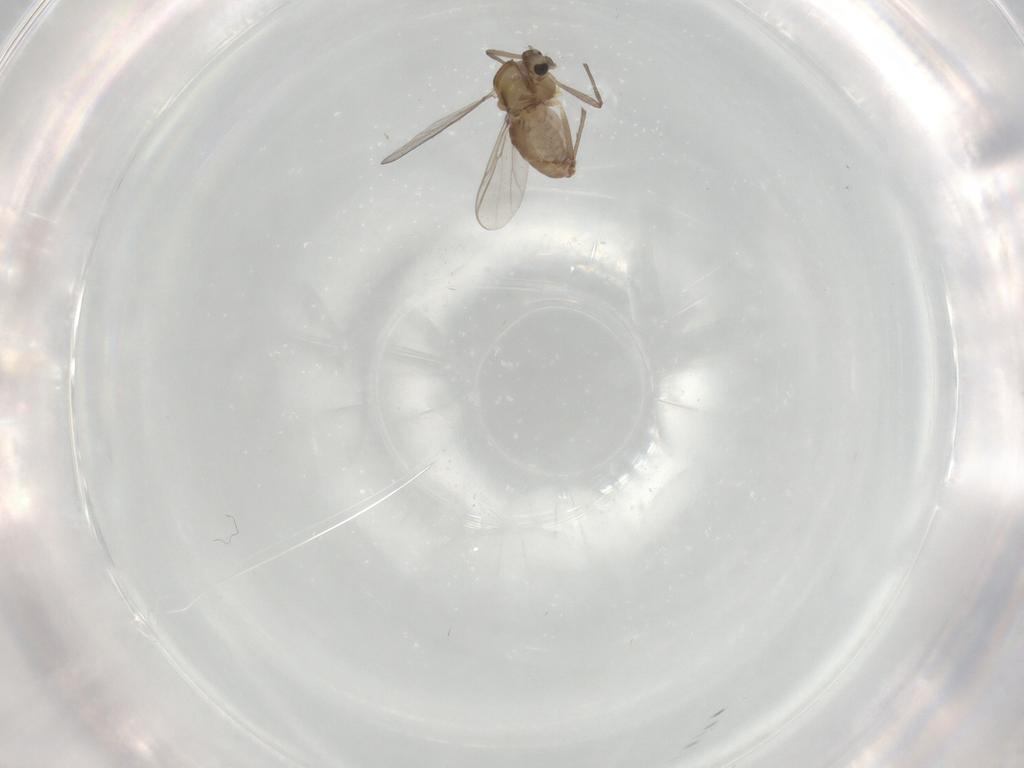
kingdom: Animalia
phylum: Arthropoda
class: Insecta
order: Diptera
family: Chironomidae
